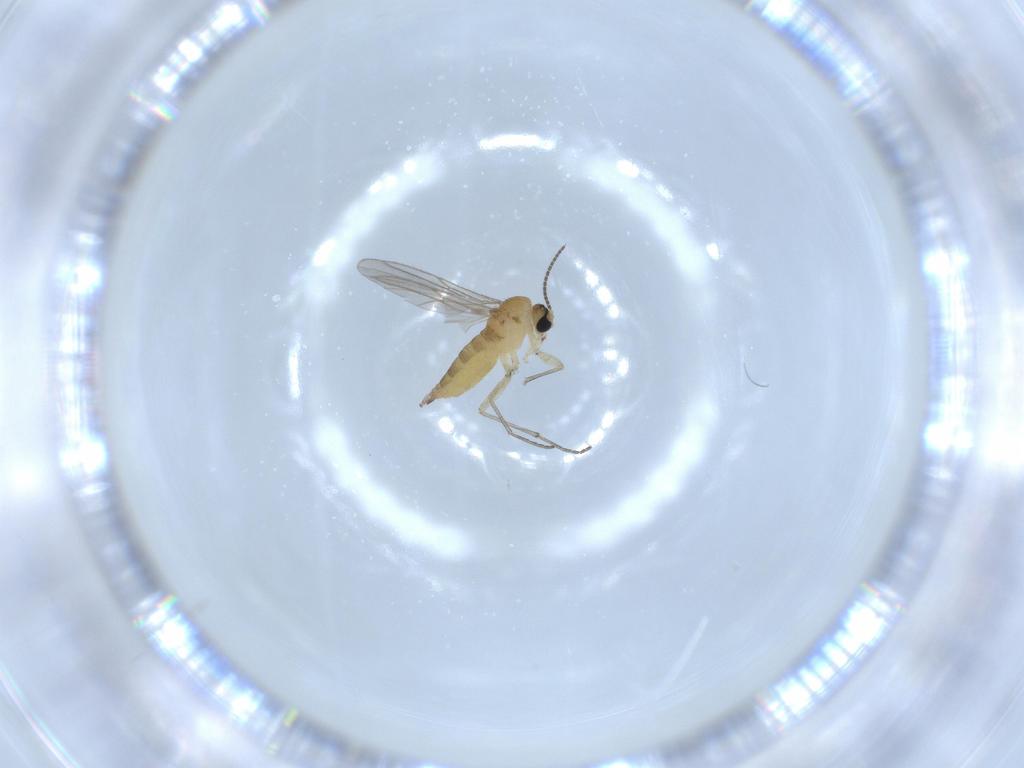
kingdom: Animalia
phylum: Arthropoda
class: Insecta
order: Diptera
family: Sciaridae
